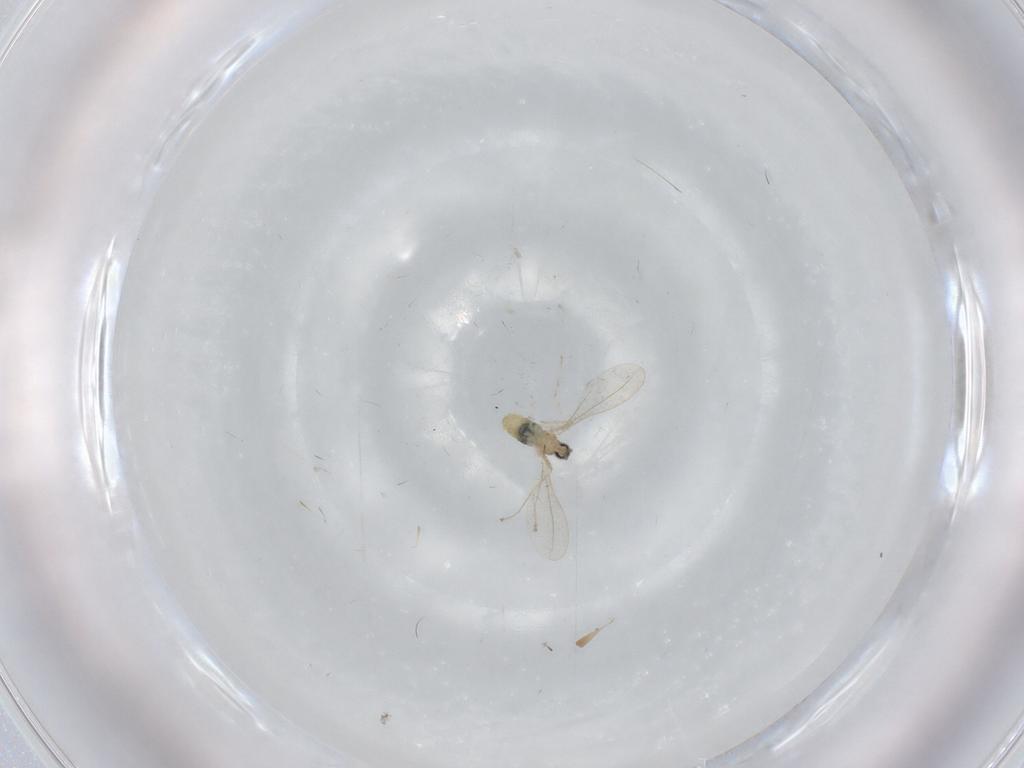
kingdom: Animalia
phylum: Arthropoda
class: Insecta
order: Diptera
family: Cecidomyiidae
